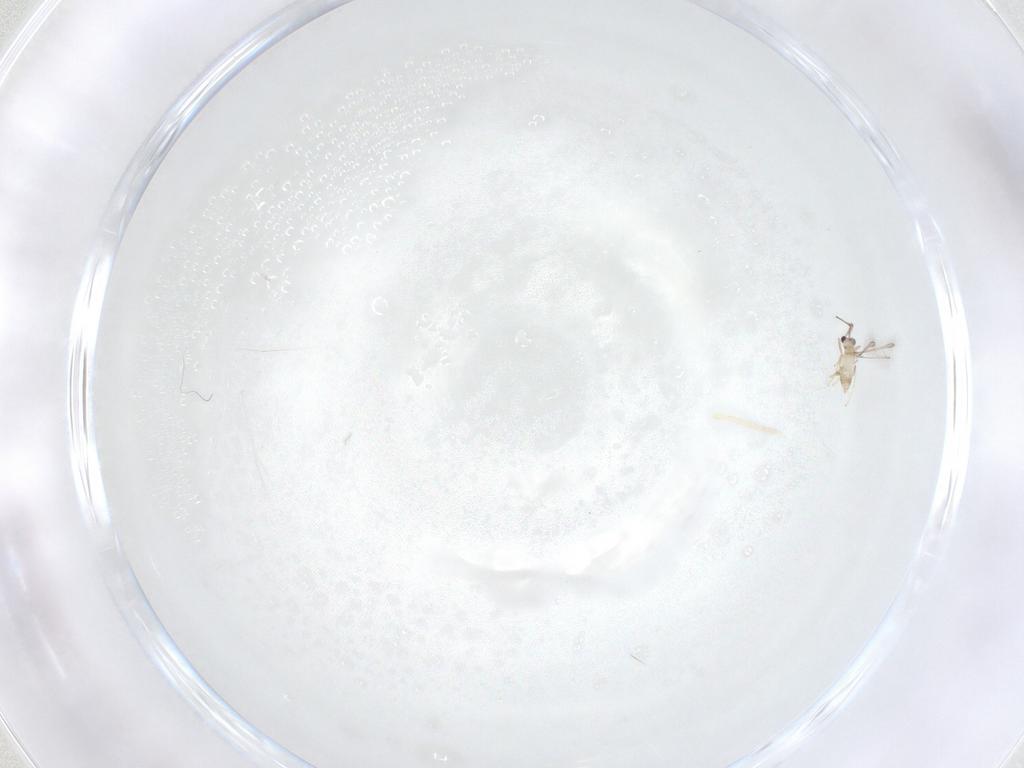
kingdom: Animalia
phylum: Arthropoda
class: Insecta
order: Hymenoptera
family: Mymaridae
